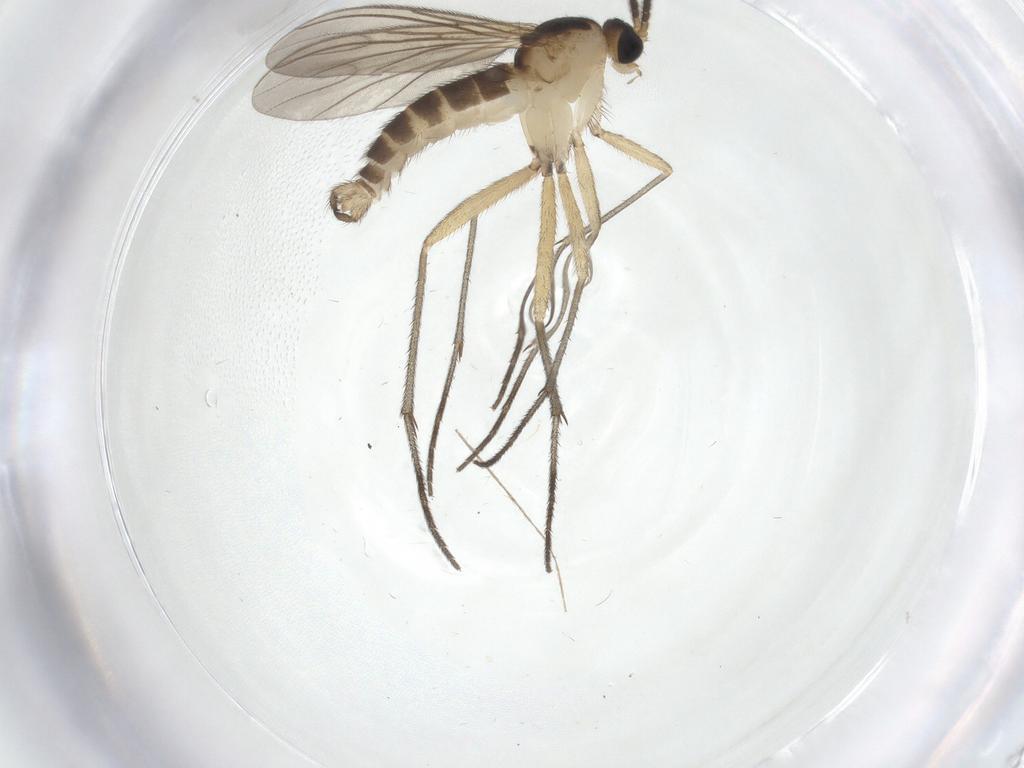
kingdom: Animalia
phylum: Arthropoda
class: Insecta
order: Diptera
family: Sciaridae
